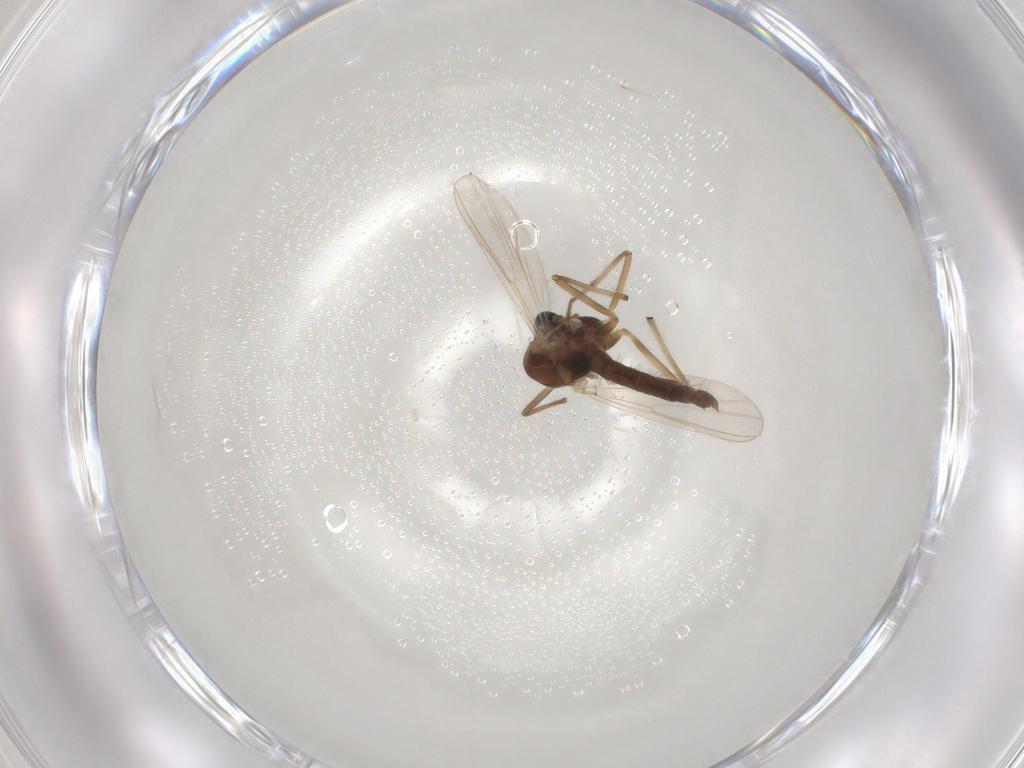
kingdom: Animalia
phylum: Arthropoda
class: Insecta
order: Diptera
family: Chironomidae
